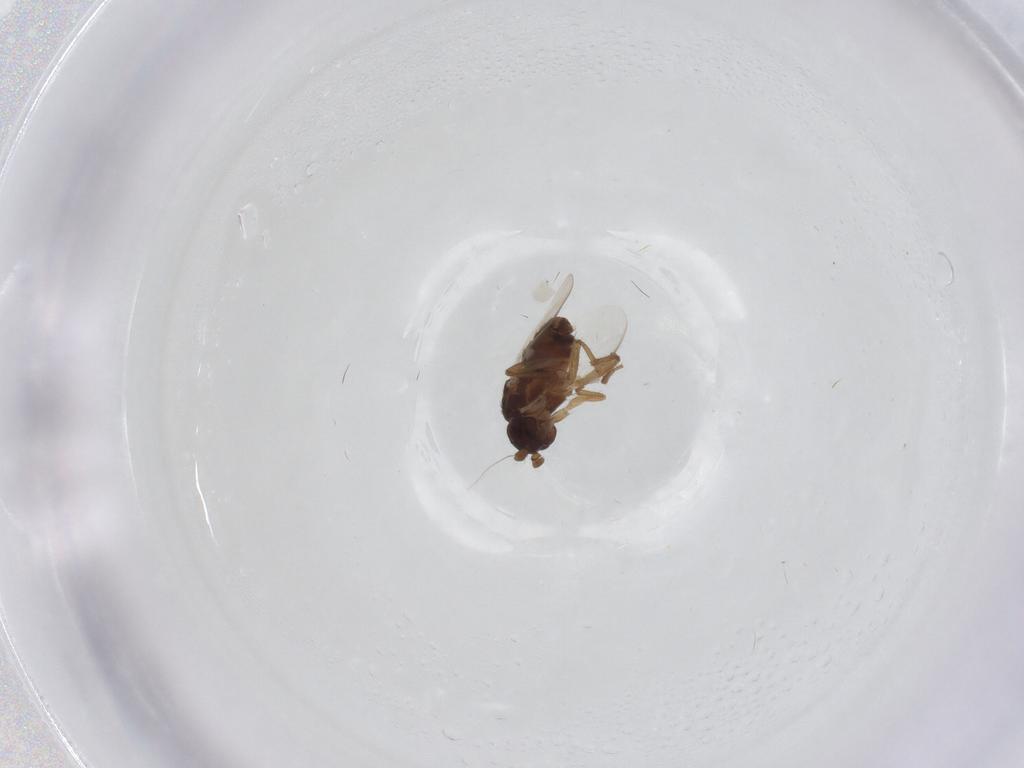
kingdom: Animalia
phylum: Arthropoda
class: Insecta
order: Diptera
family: Sphaeroceridae
